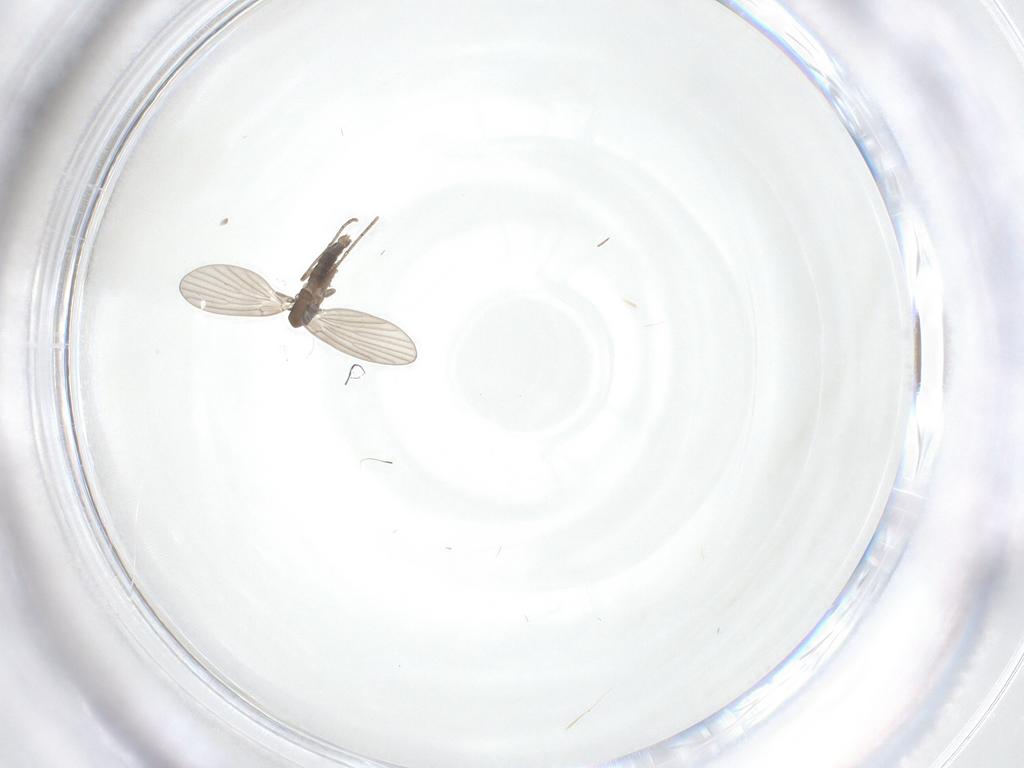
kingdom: Animalia
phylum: Arthropoda
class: Insecta
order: Diptera
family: Psychodidae
